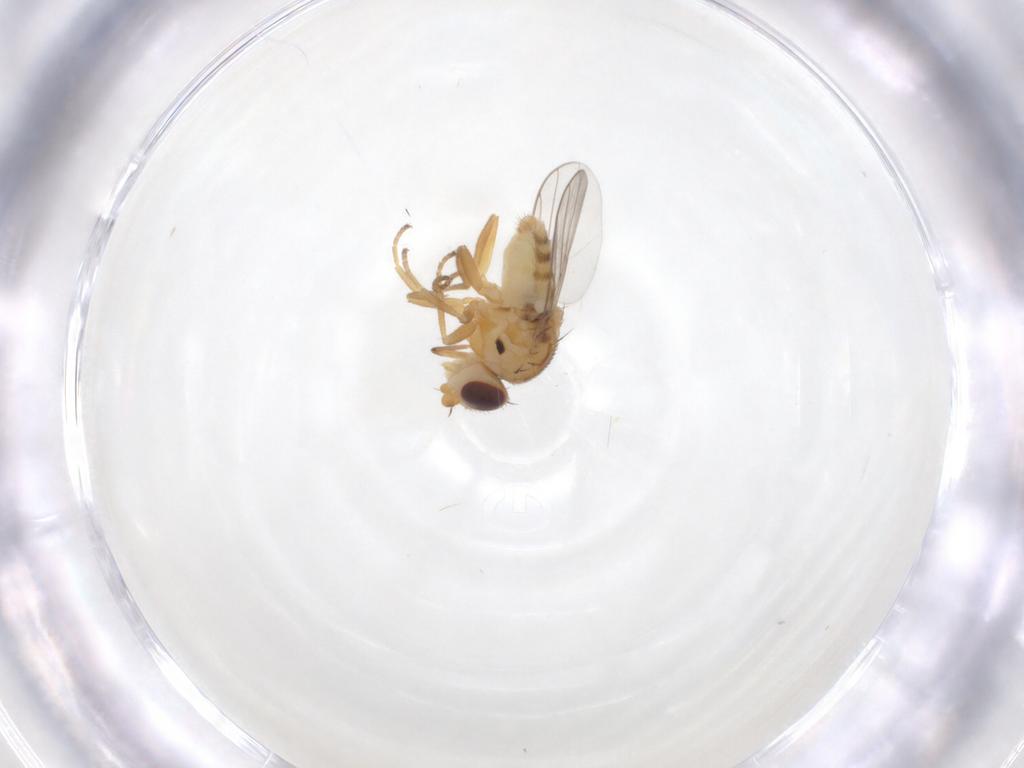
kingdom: Animalia
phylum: Arthropoda
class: Insecta
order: Diptera
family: Chloropidae
